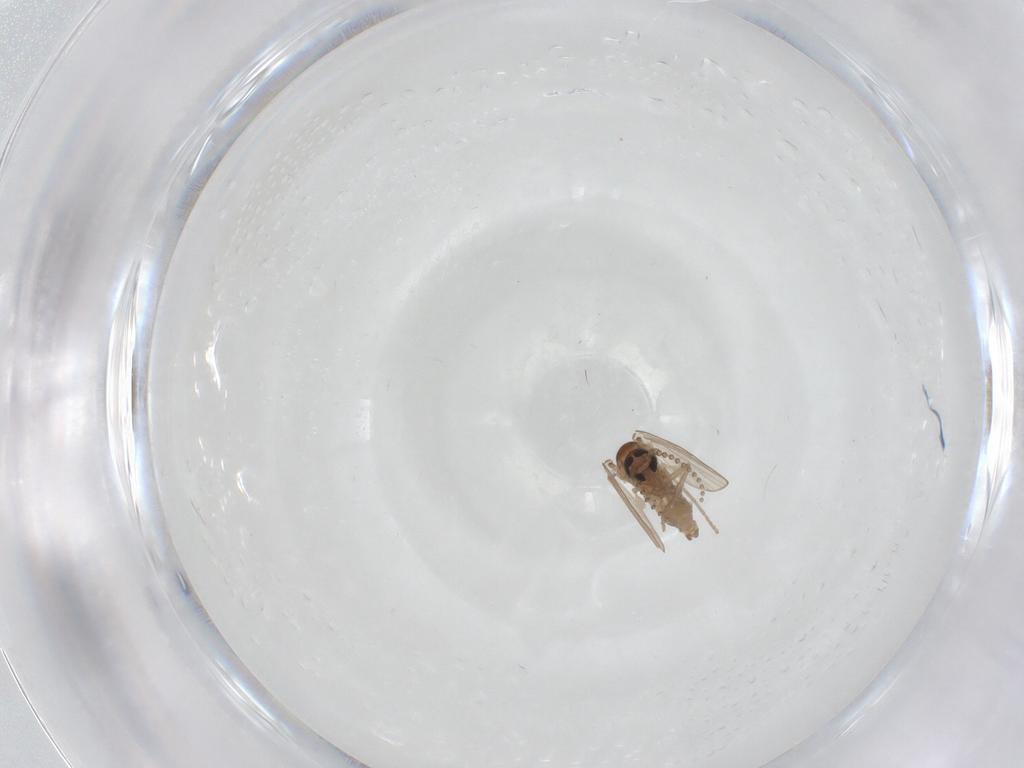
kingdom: Animalia
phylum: Arthropoda
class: Insecta
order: Diptera
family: Psychodidae
